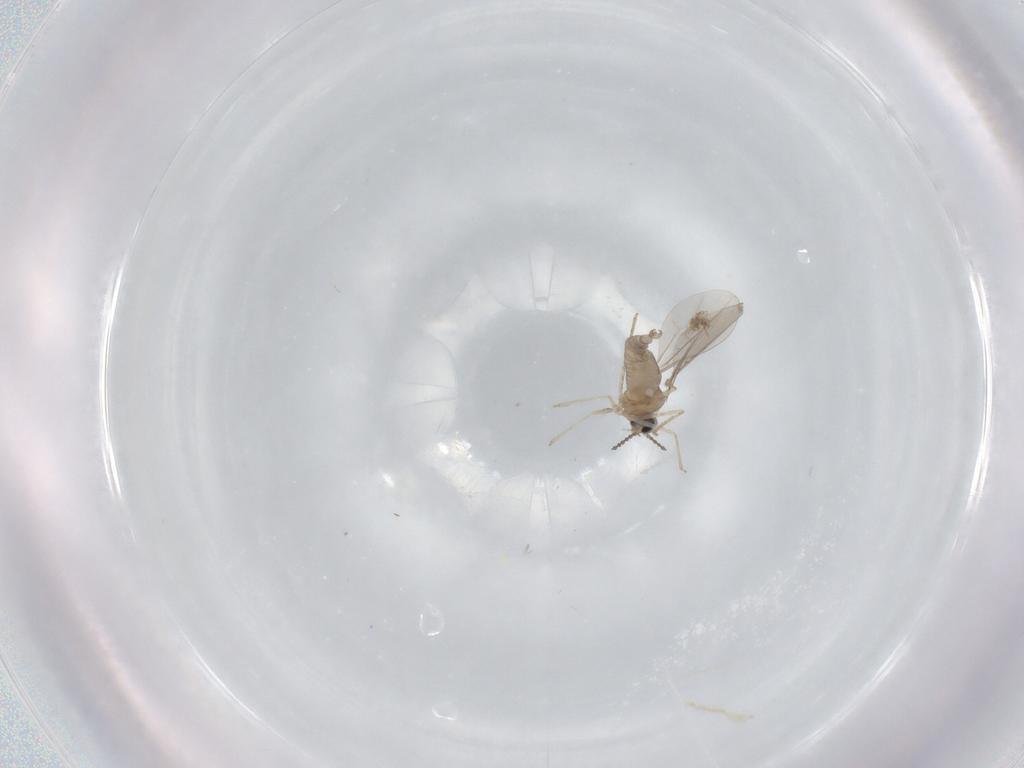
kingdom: Animalia
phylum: Arthropoda
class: Insecta
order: Diptera
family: Cecidomyiidae
